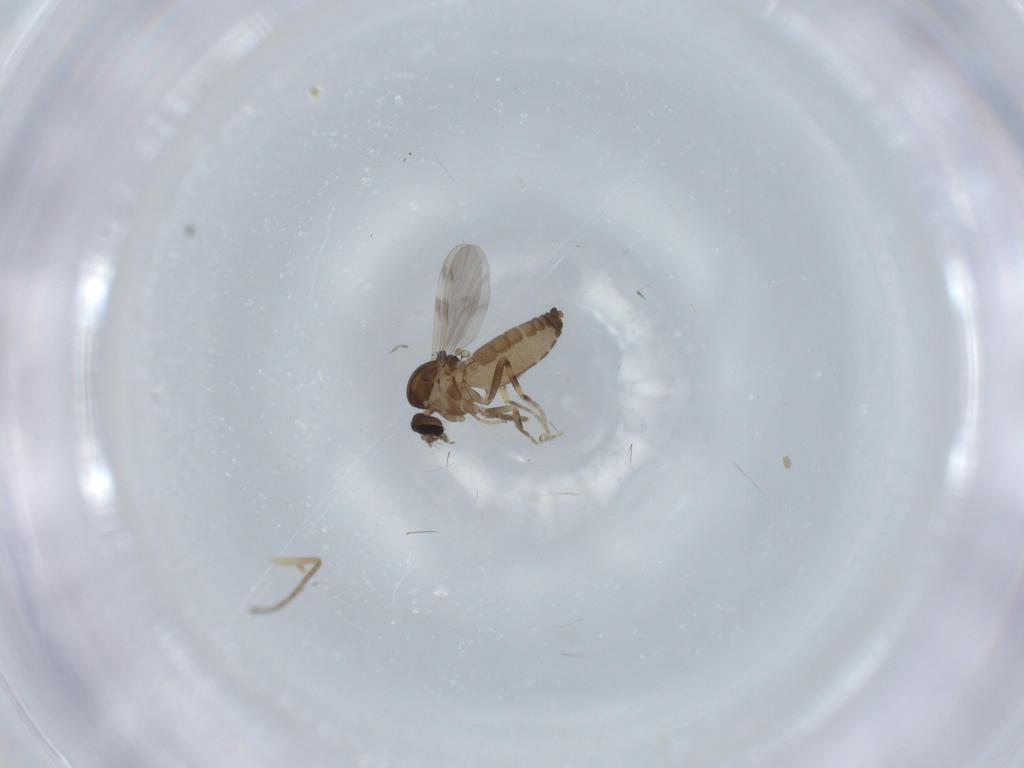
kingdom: Animalia
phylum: Arthropoda
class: Insecta
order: Diptera
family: Ceratopogonidae
